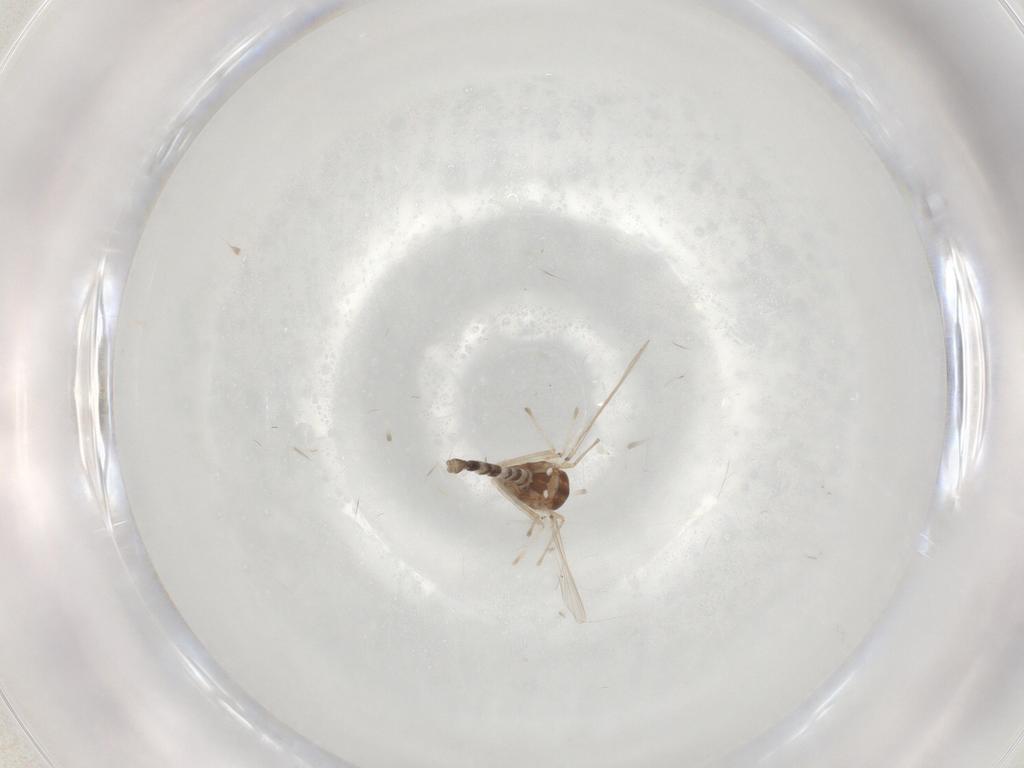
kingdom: Animalia
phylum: Arthropoda
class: Insecta
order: Diptera
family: Chironomidae
